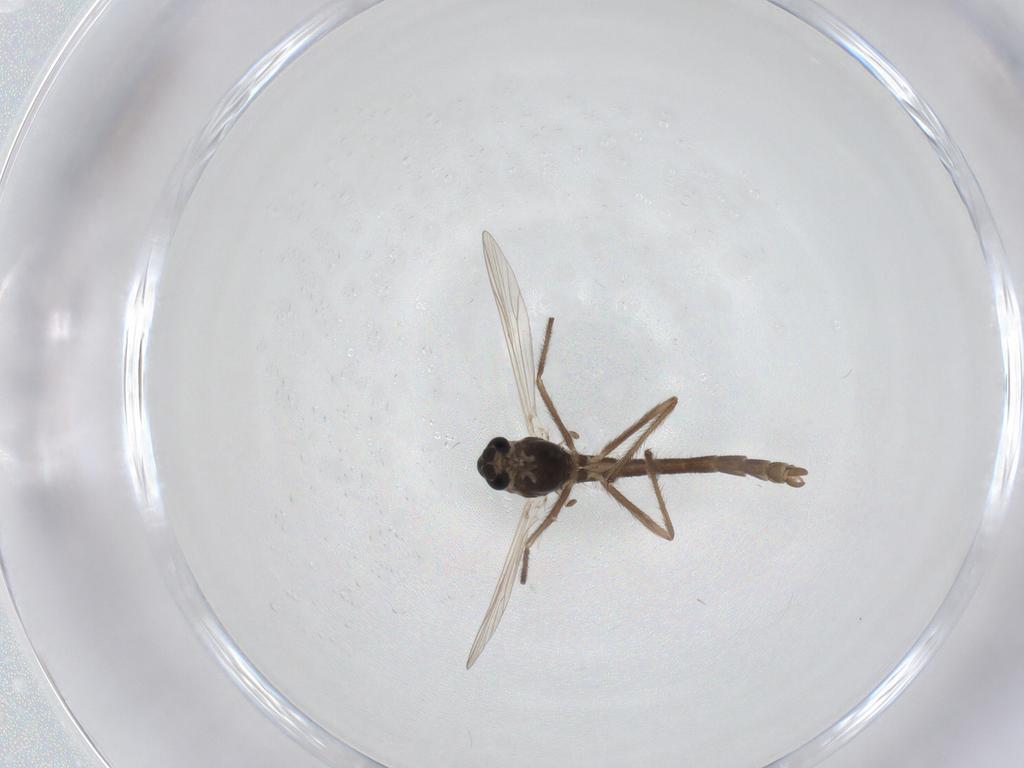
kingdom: Animalia
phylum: Arthropoda
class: Insecta
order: Diptera
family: Chironomidae
